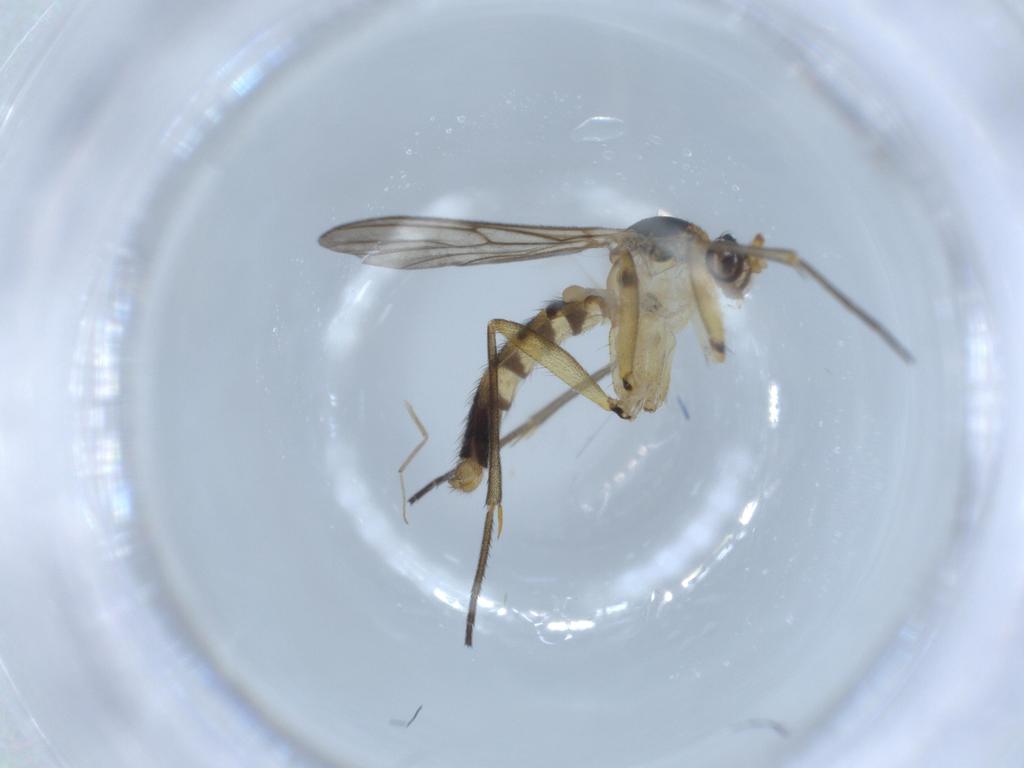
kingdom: Animalia
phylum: Arthropoda
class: Insecta
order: Diptera
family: Mycetophilidae
